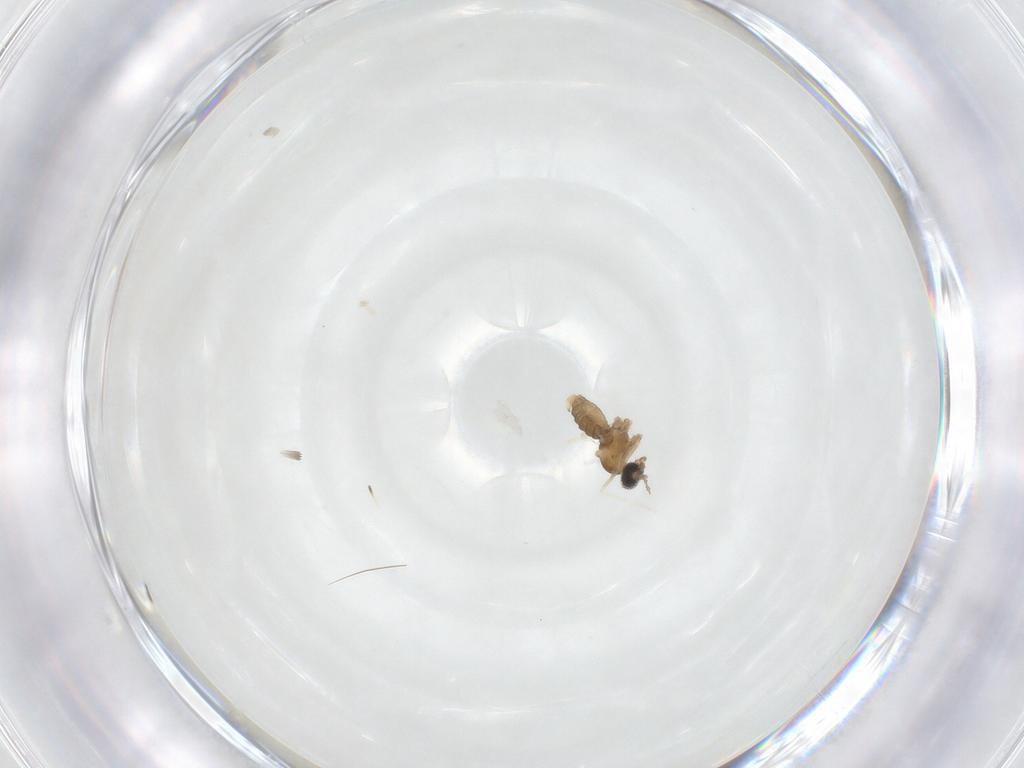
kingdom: Animalia
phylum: Arthropoda
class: Insecta
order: Diptera
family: Cecidomyiidae
